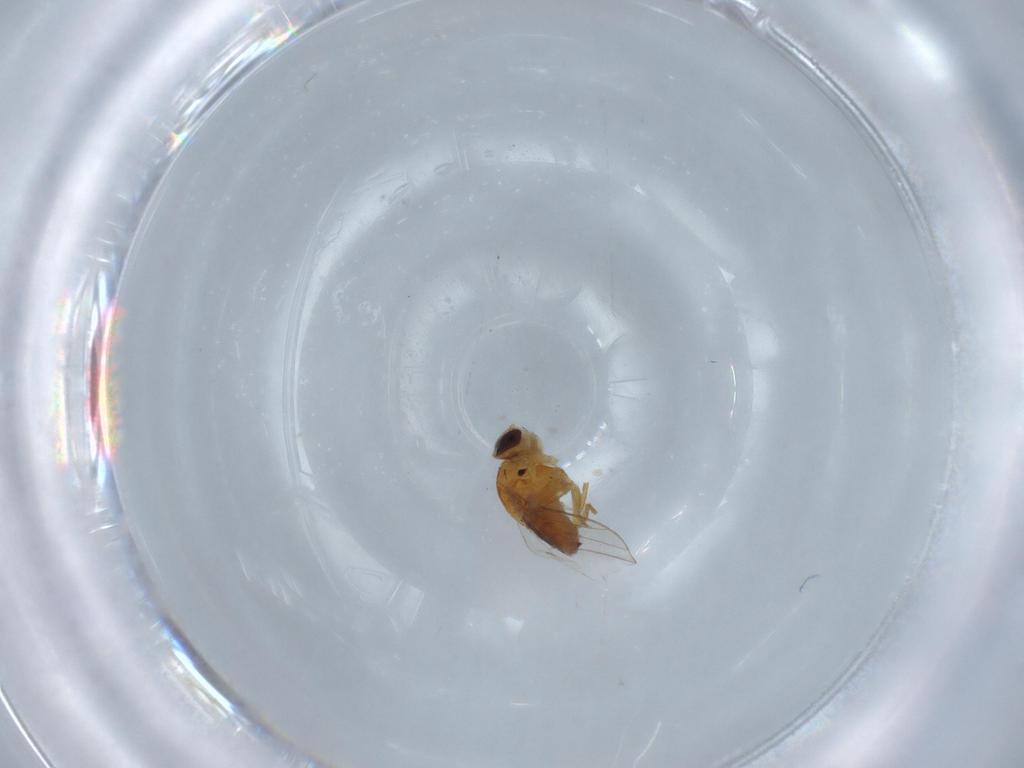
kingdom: Animalia
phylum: Arthropoda
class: Insecta
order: Diptera
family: Chloropidae
